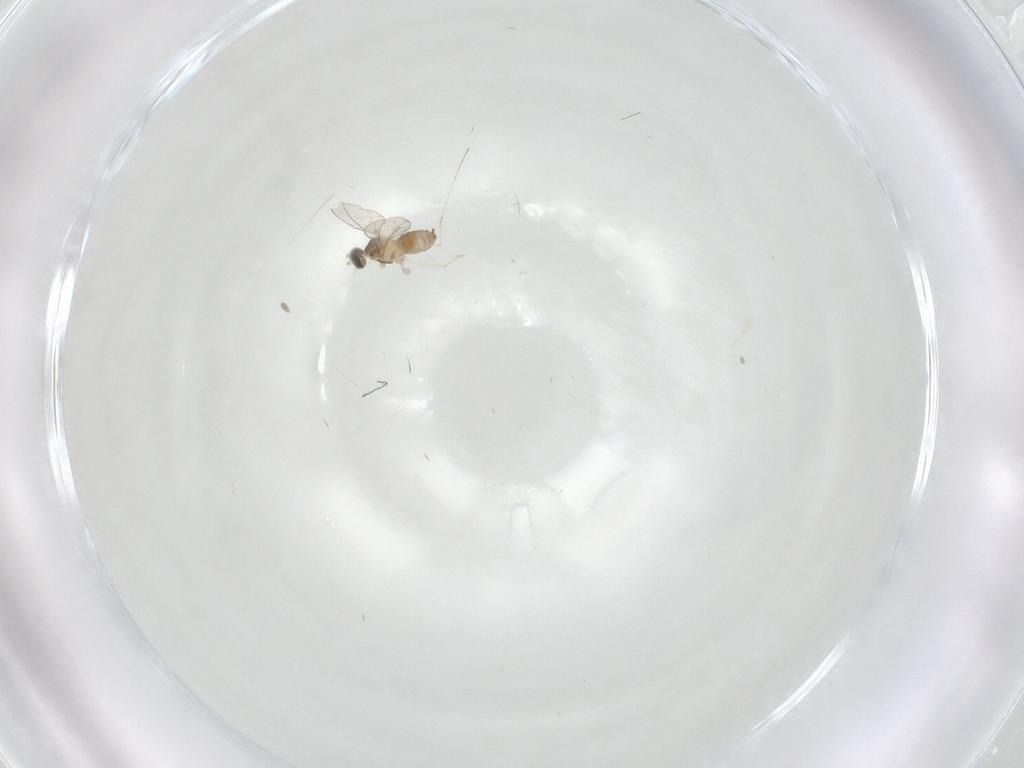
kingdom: Animalia
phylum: Arthropoda
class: Insecta
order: Diptera
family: Cecidomyiidae
